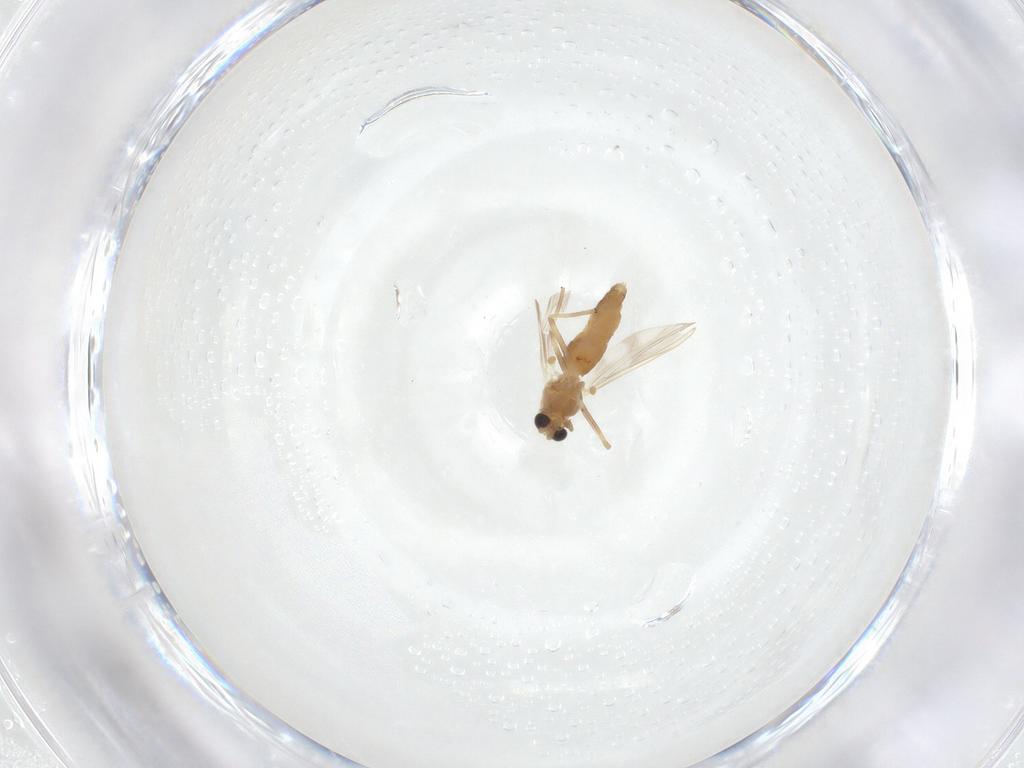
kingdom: Animalia
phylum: Arthropoda
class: Insecta
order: Diptera
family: Chironomidae
